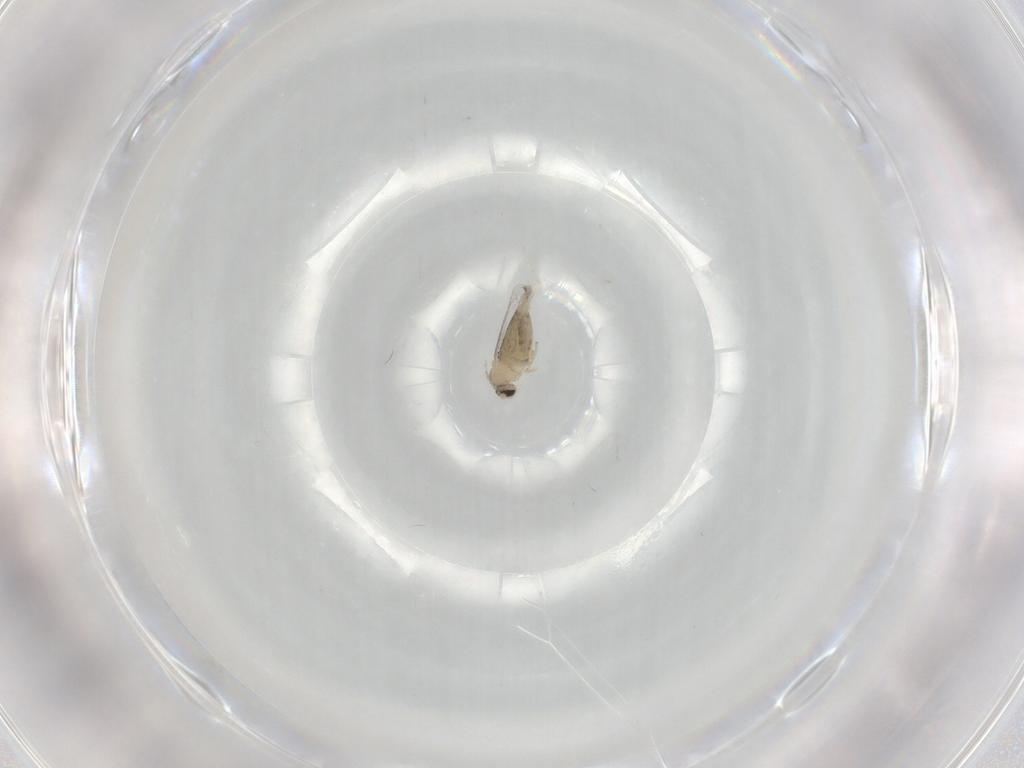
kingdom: Animalia
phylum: Arthropoda
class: Insecta
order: Diptera
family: Cecidomyiidae
